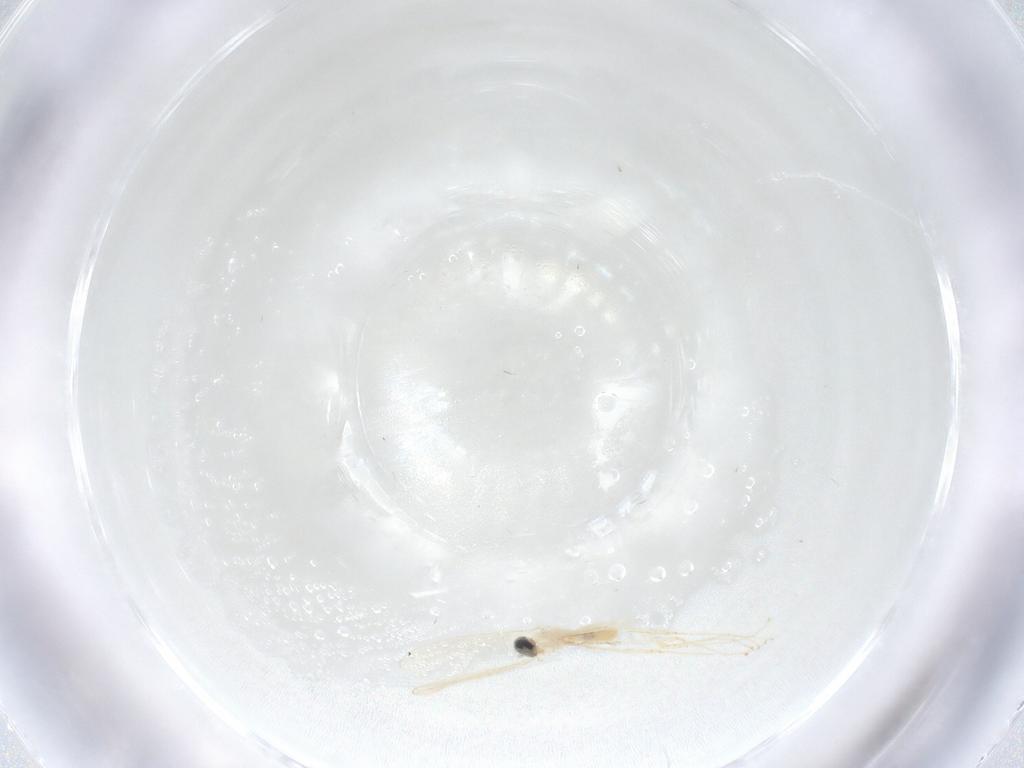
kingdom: Animalia
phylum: Arthropoda
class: Insecta
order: Diptera
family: Cecidomyiidae
